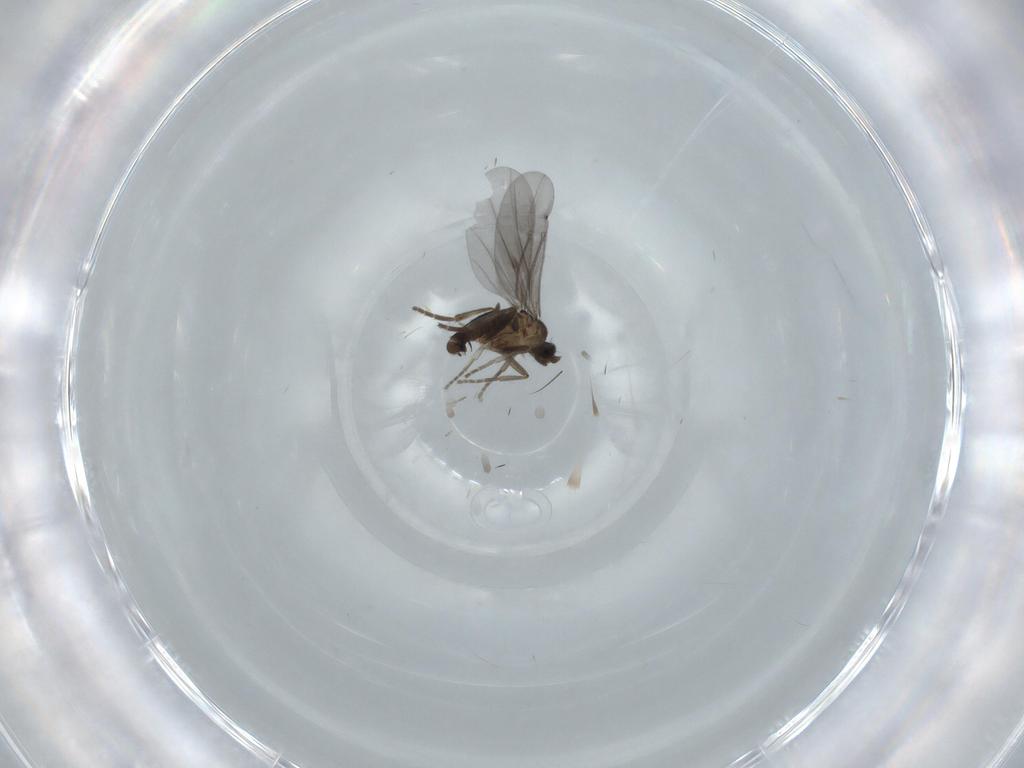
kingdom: Animalia
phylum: Arthropoda
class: Insecta
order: Diptera
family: Phoridae
